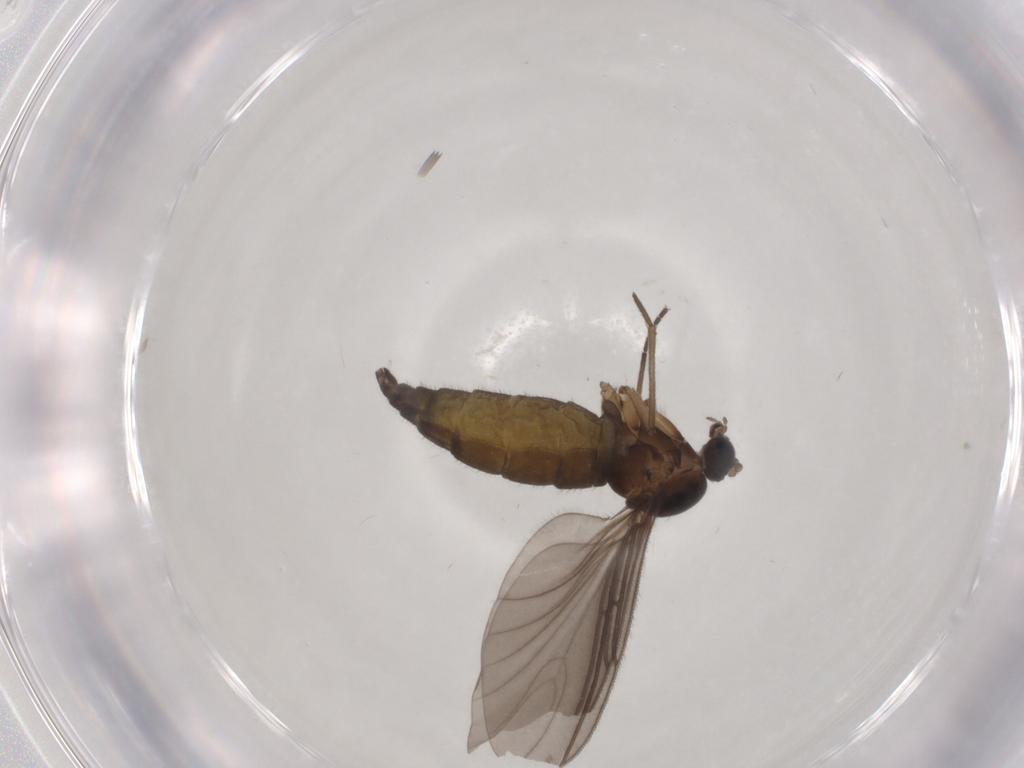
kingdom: Animalia
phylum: Arthropoda
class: Insecta
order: Diptera
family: Sciaridae
